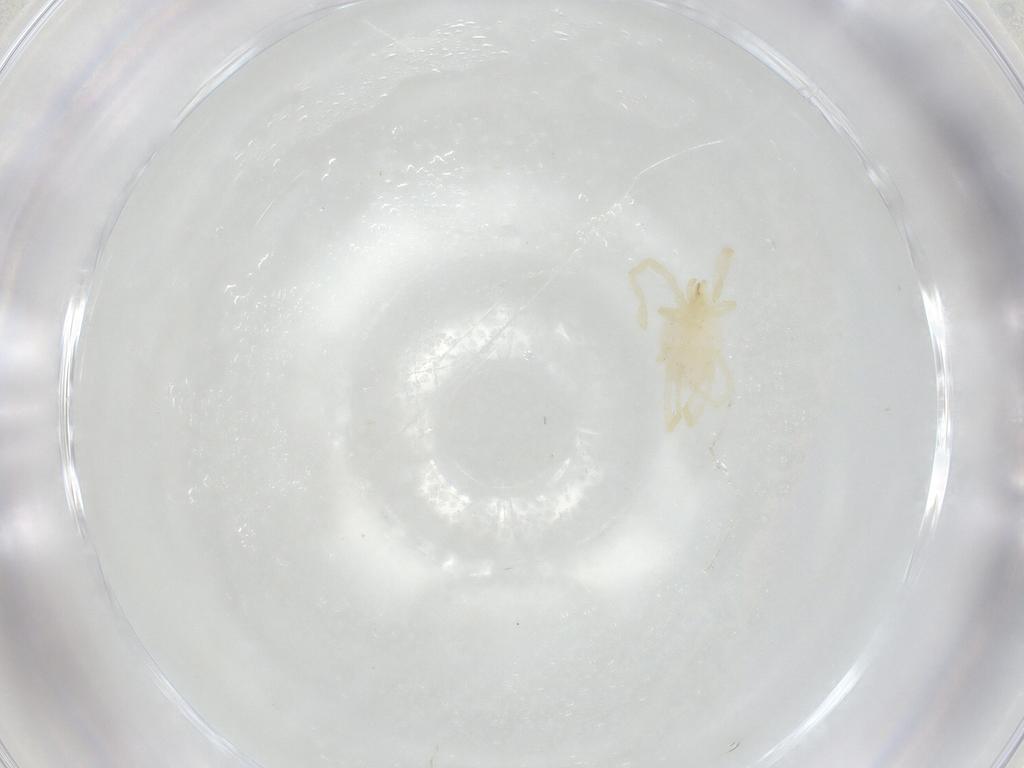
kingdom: Animalia
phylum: Arthropoda
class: Arachnida
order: Trombidiformes
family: Erythraeidae
